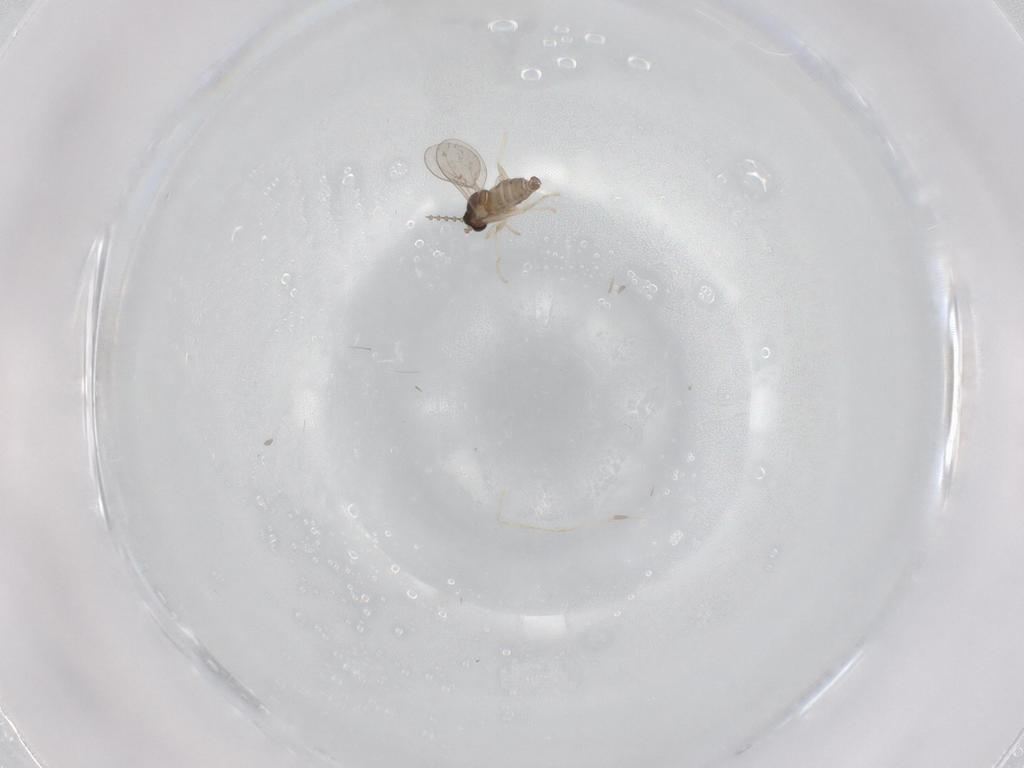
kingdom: Animalia
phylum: Arthropoda
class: Insecta
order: Diptera
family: Cecidomyiidae
